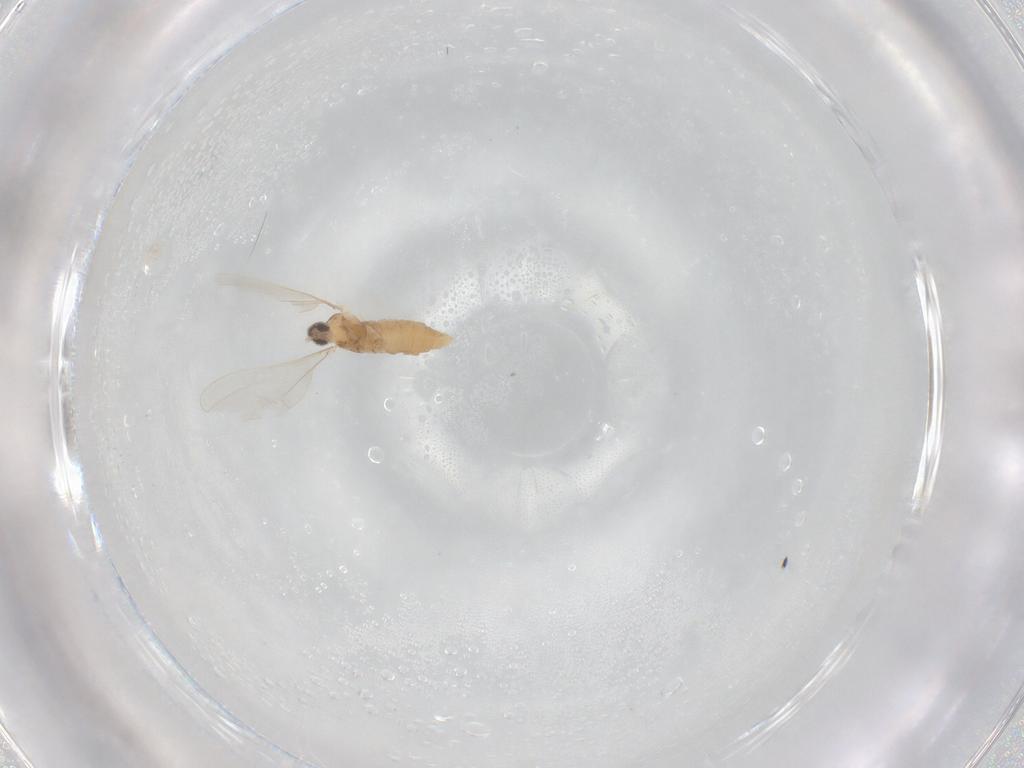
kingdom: Animalia
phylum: Arthropoda
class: Insecta
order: Diptera
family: Cecidomyiidae
